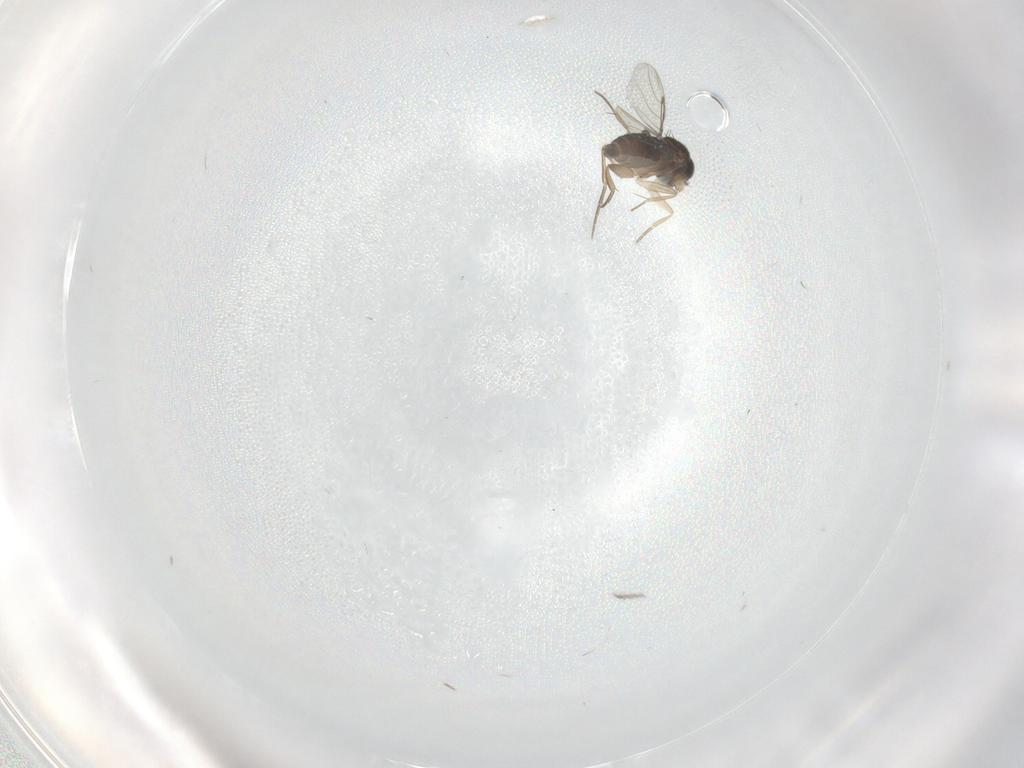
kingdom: Animalia
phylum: Arthropoda
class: Insecta
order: Diptera
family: Phoridae
